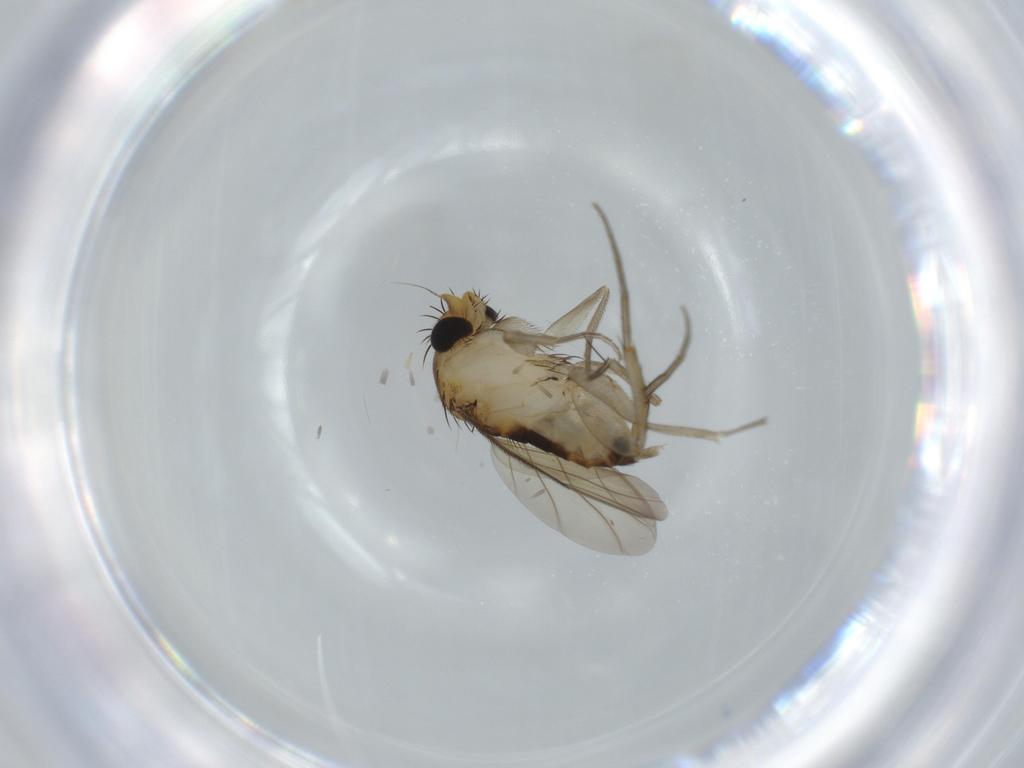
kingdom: Animalia
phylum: Arthropoda
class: Insecta
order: Diptera
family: Phoridae
